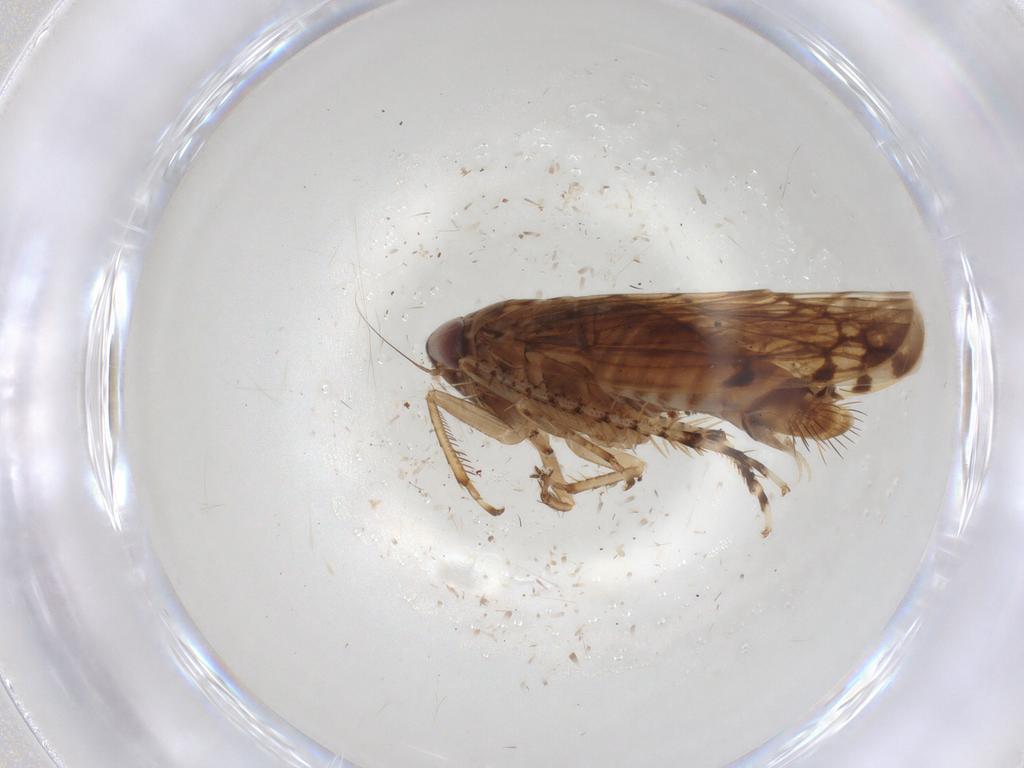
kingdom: Animalia
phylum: Arthropoda
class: Insecta
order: Hemiptera
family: Cicadellidae
